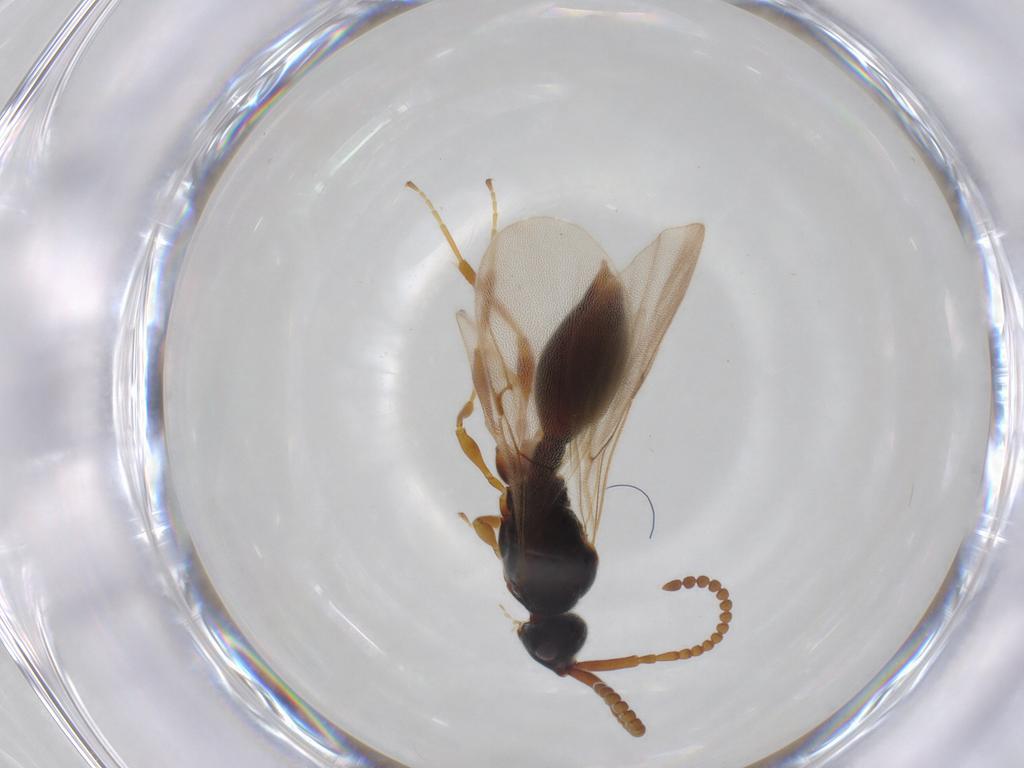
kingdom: Animalia
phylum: Arthropoda
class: Insecta
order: Hymenoptera
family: Diapriidae
